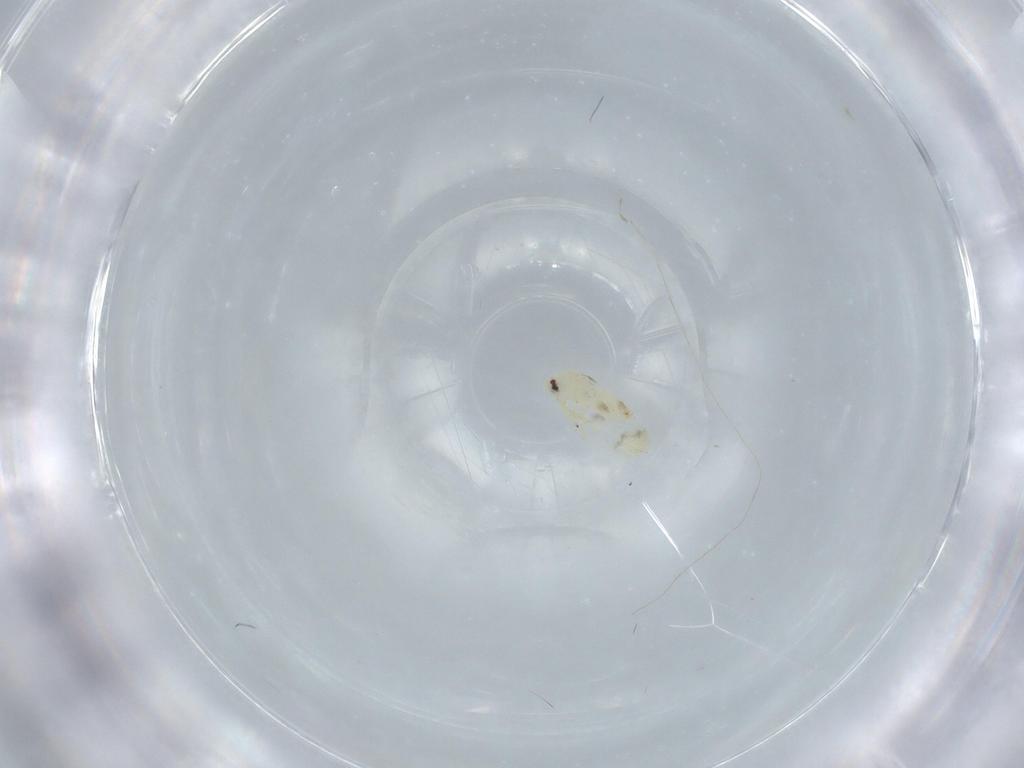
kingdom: Animalia
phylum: Arthropoda
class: Insecta
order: Hemiptera
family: Aleyrodidae
